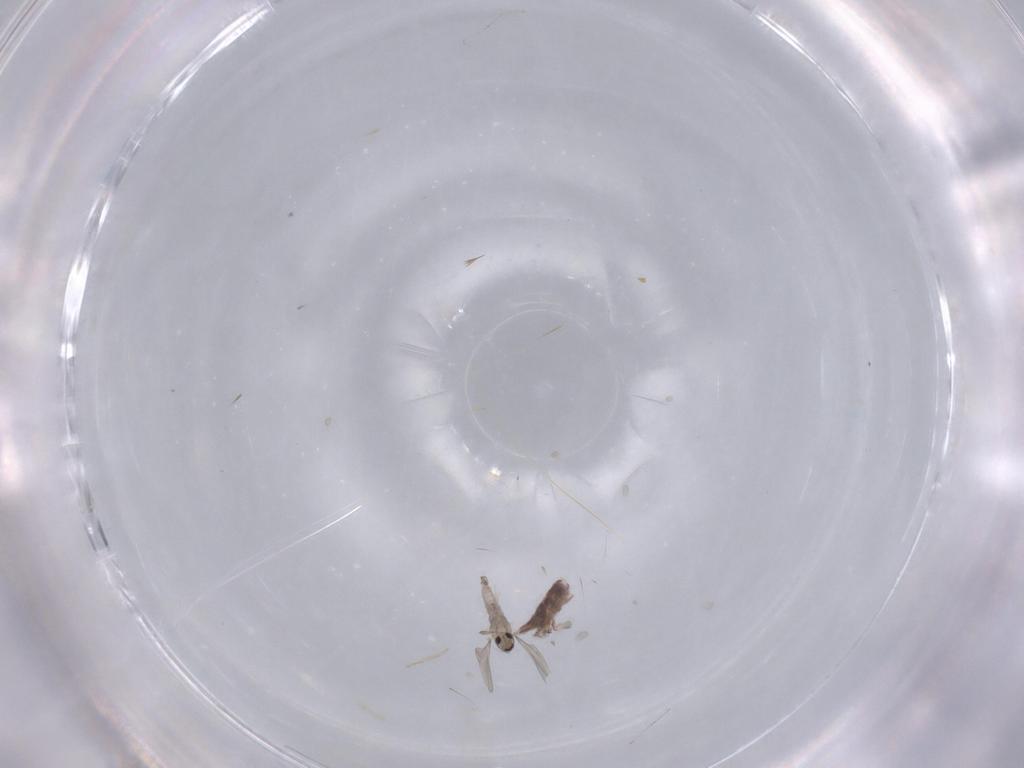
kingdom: Animalia
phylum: Arthropoda
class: Insecta
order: Diptera
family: Cecidomyiidae
